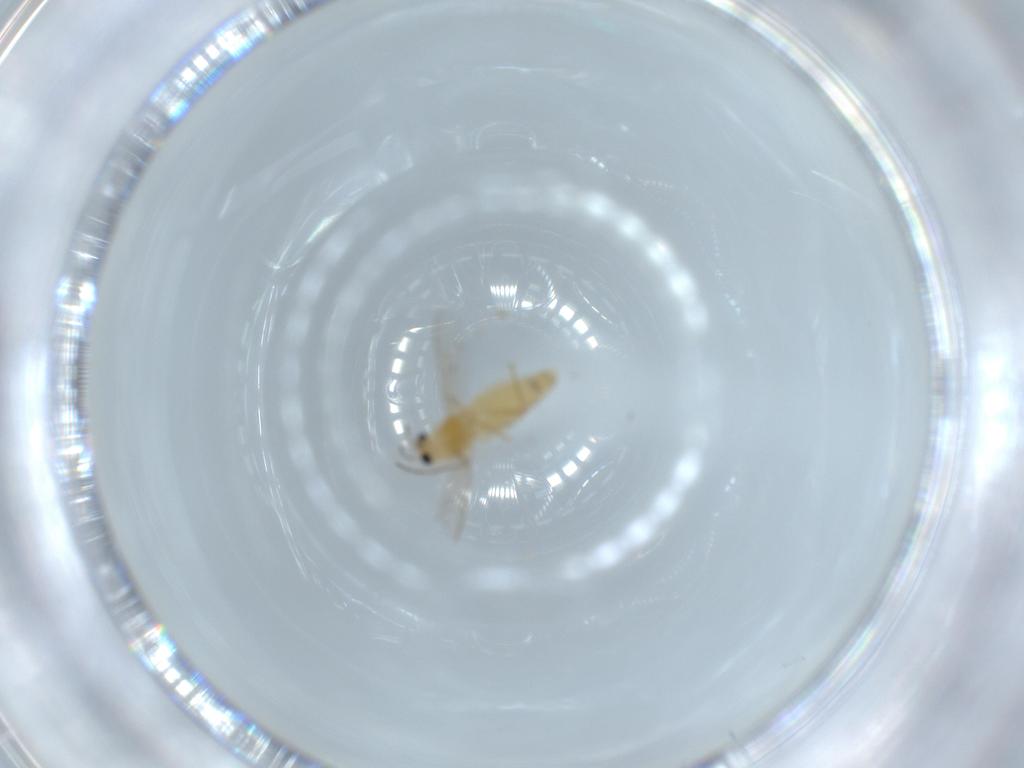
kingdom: Animalia
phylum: Arthropoda
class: Insecta
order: Diptera
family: Chironomidae
